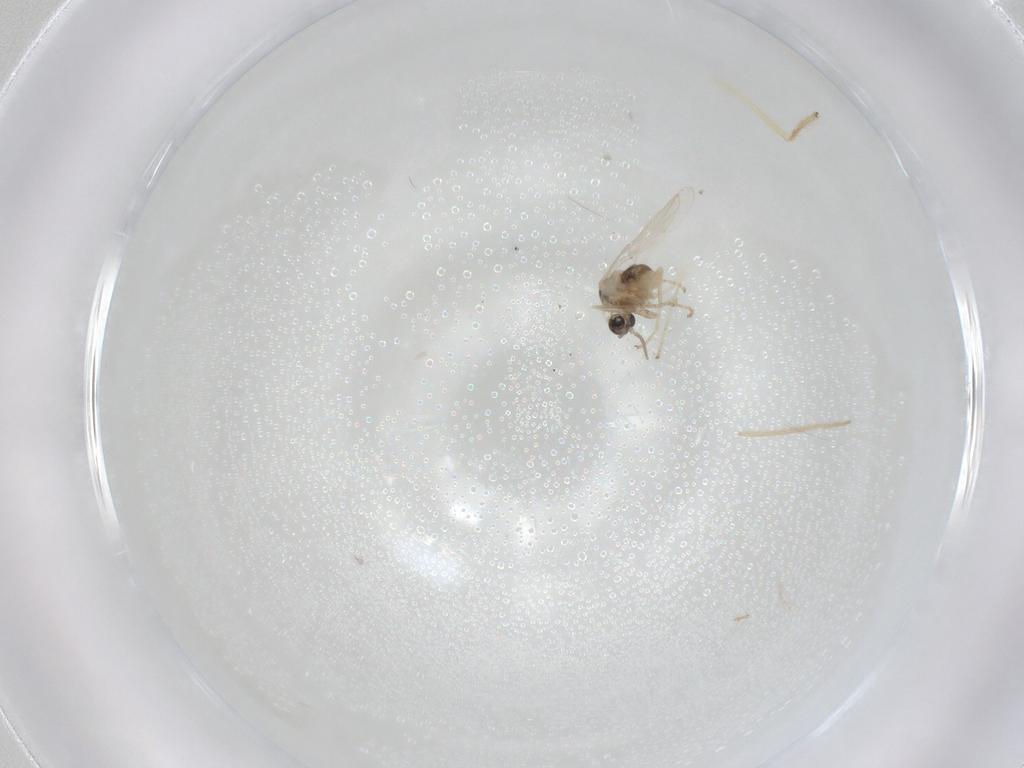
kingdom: Animalia
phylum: Arthropoda
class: Insecta
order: Diptera
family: Cecidomyiidae
